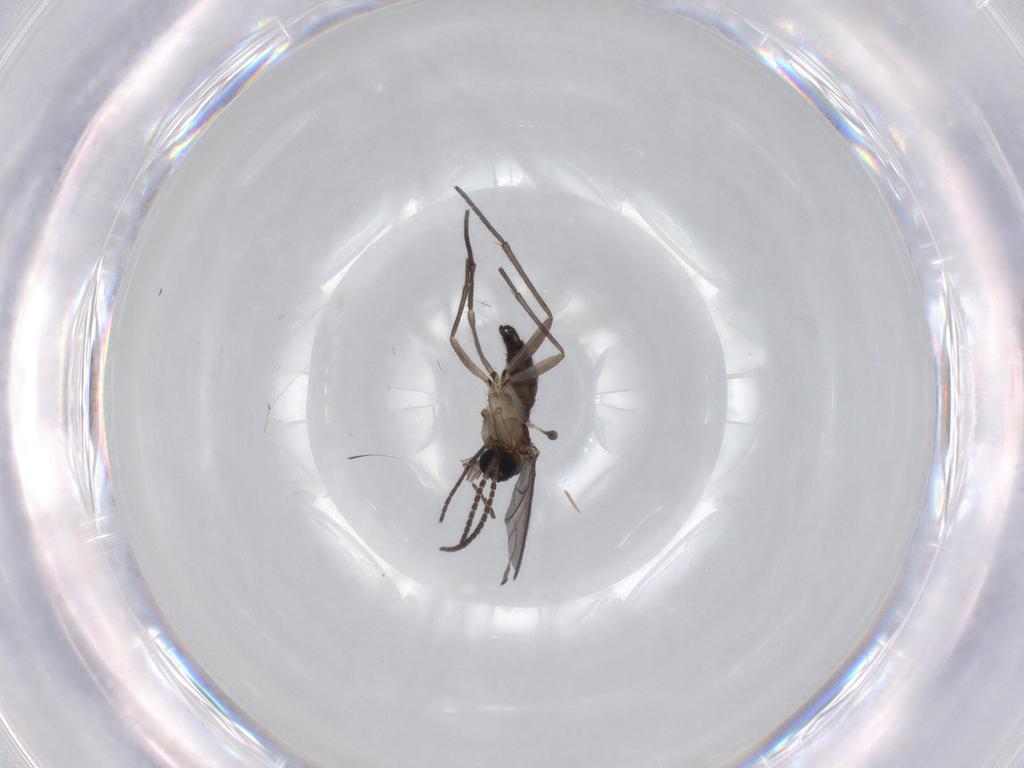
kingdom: Animalia
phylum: Arthropoda
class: Insecta
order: Diptera
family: Sciaridae
